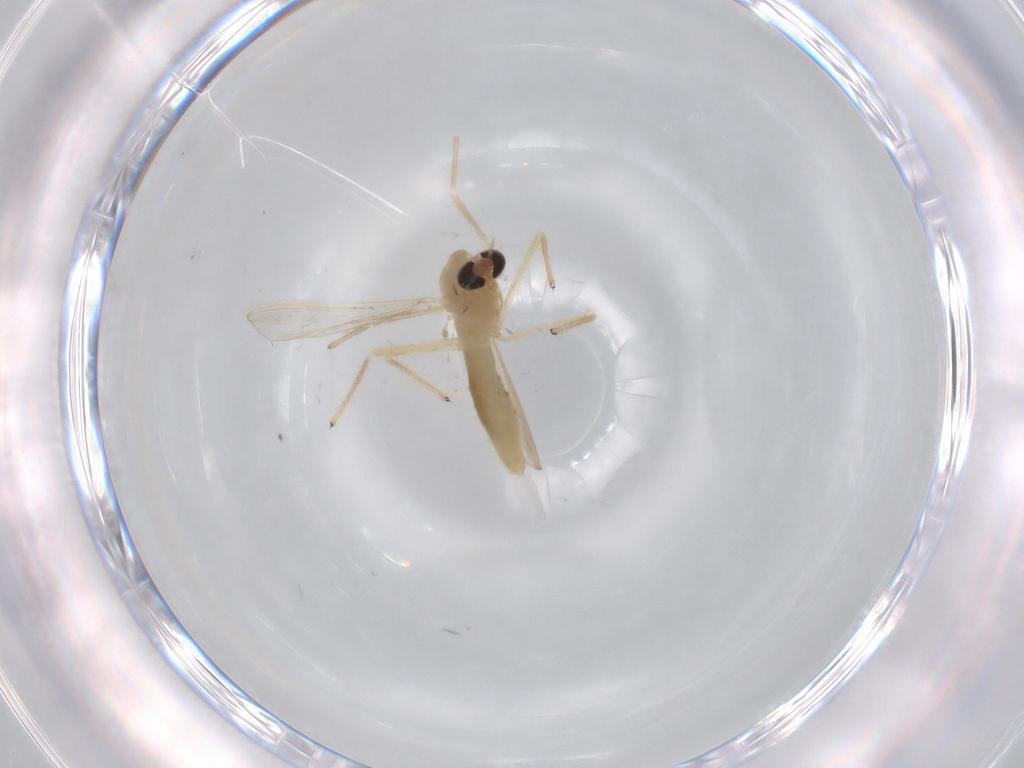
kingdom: Animalia
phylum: Arthropoda
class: Insecta
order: Diptera
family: Chironomidae
